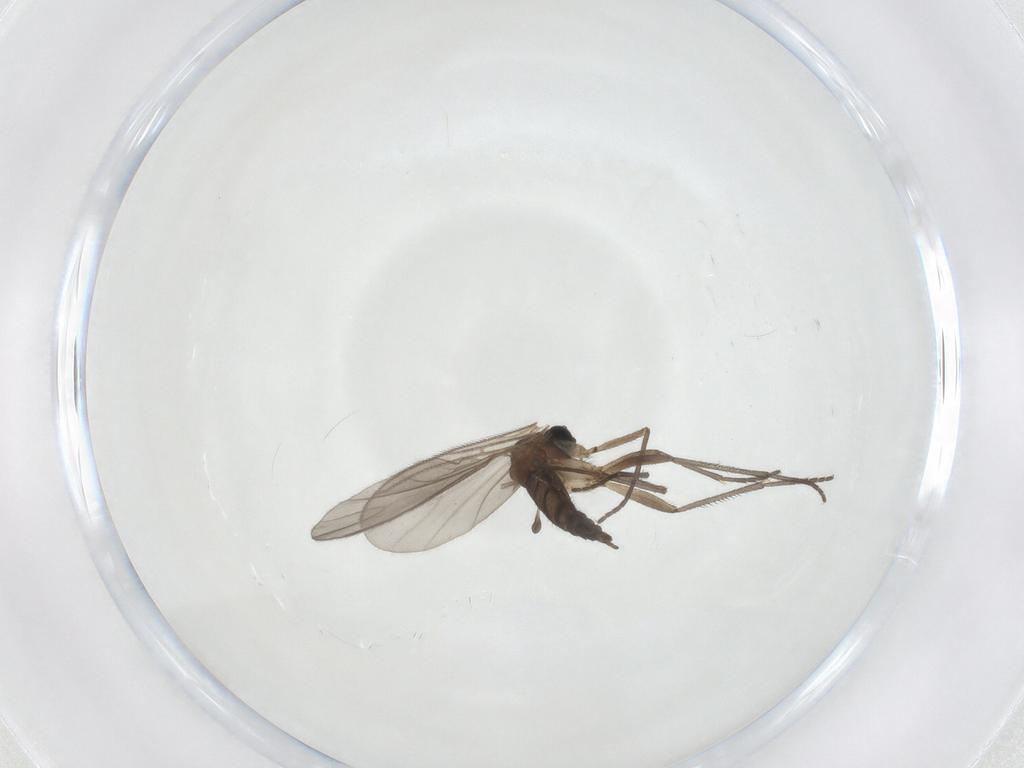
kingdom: Animalia
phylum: Arthropoda
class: Insecta
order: Diptera
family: Sciaridae
